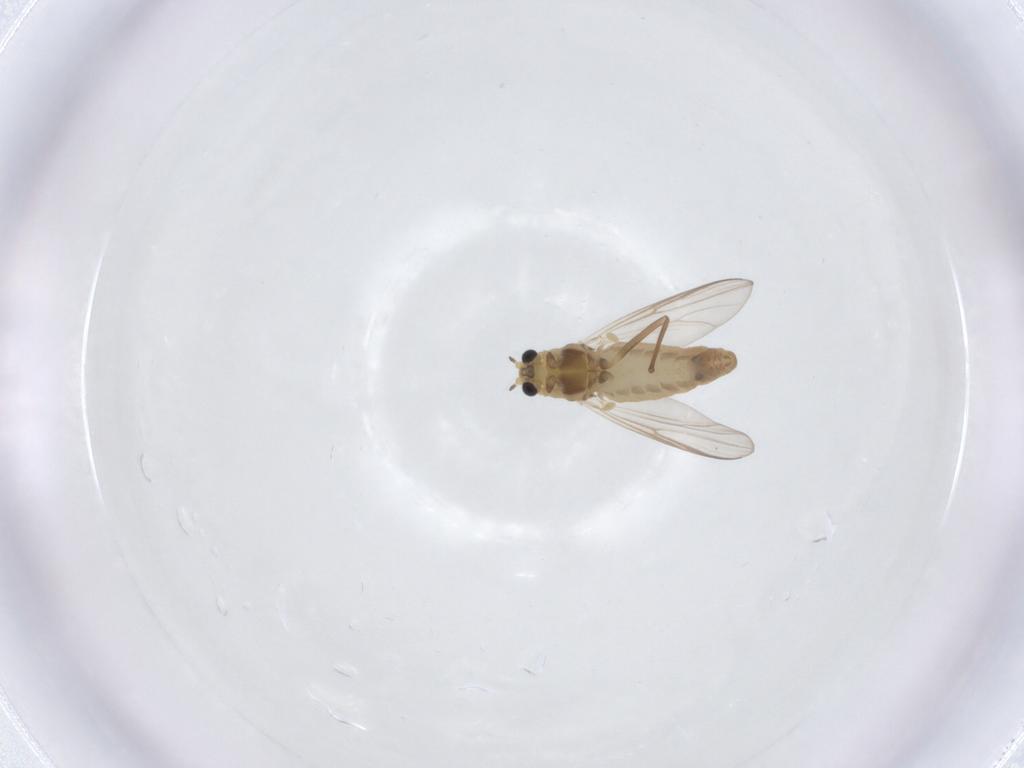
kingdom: Animalia
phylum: Arthropoda
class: Insecta
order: Diptera
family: Chironomidae
